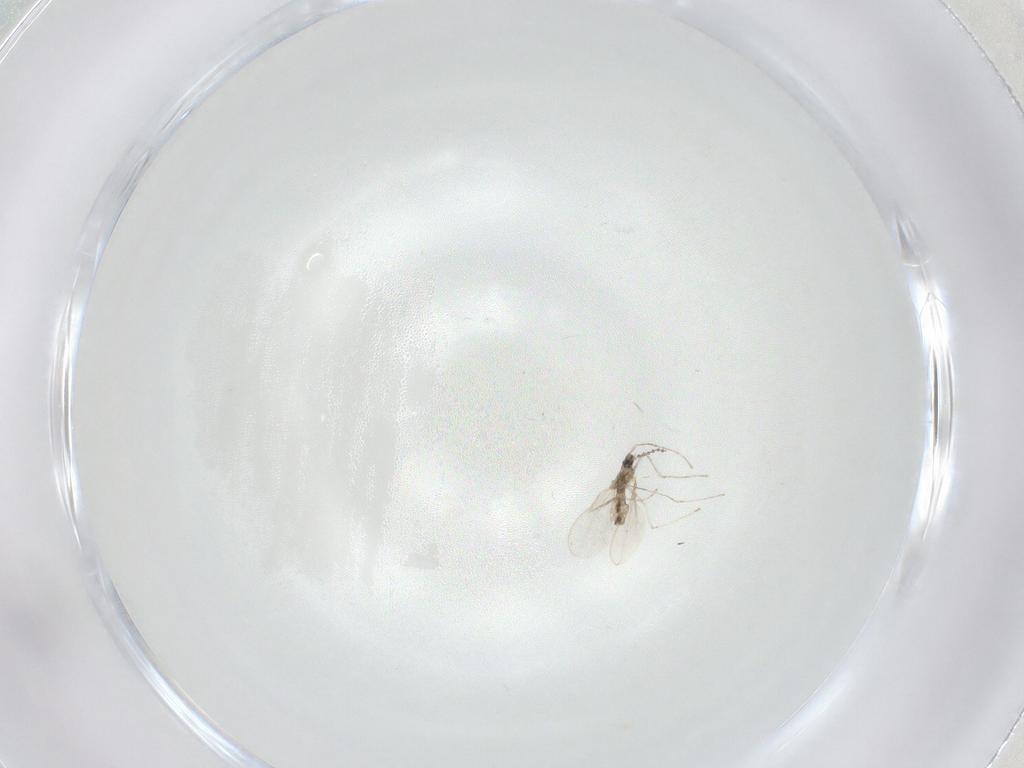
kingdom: Animalia
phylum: Arthropoda
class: Insecta
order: Diptera
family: Cecidomyiidae
